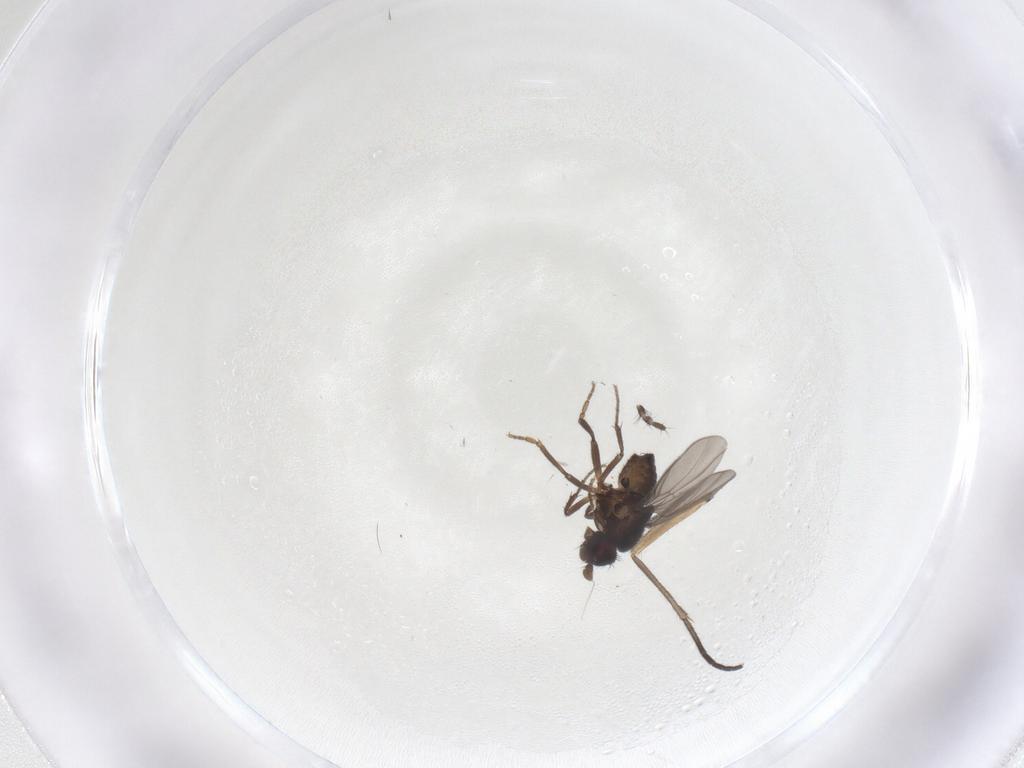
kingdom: Animalia
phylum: Arthropoda
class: Insecta
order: Diptera
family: Sphaeroceridae
